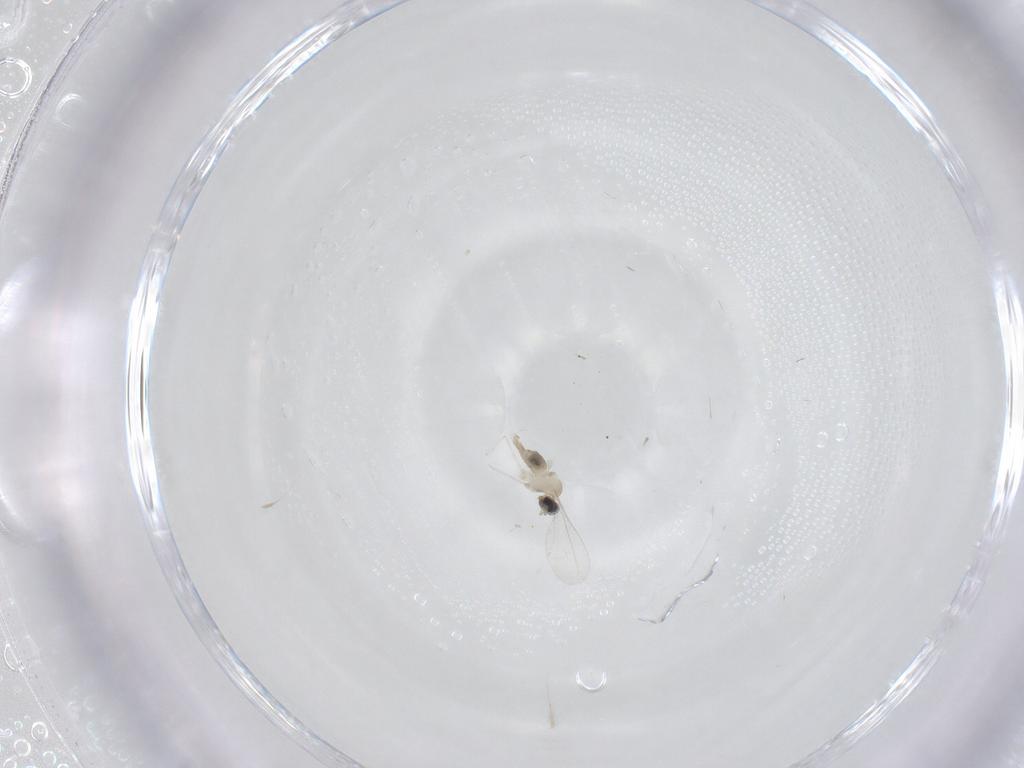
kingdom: Animalia
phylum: Arthropoda
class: Insecta
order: Diptera
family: Cecidomyiidae
